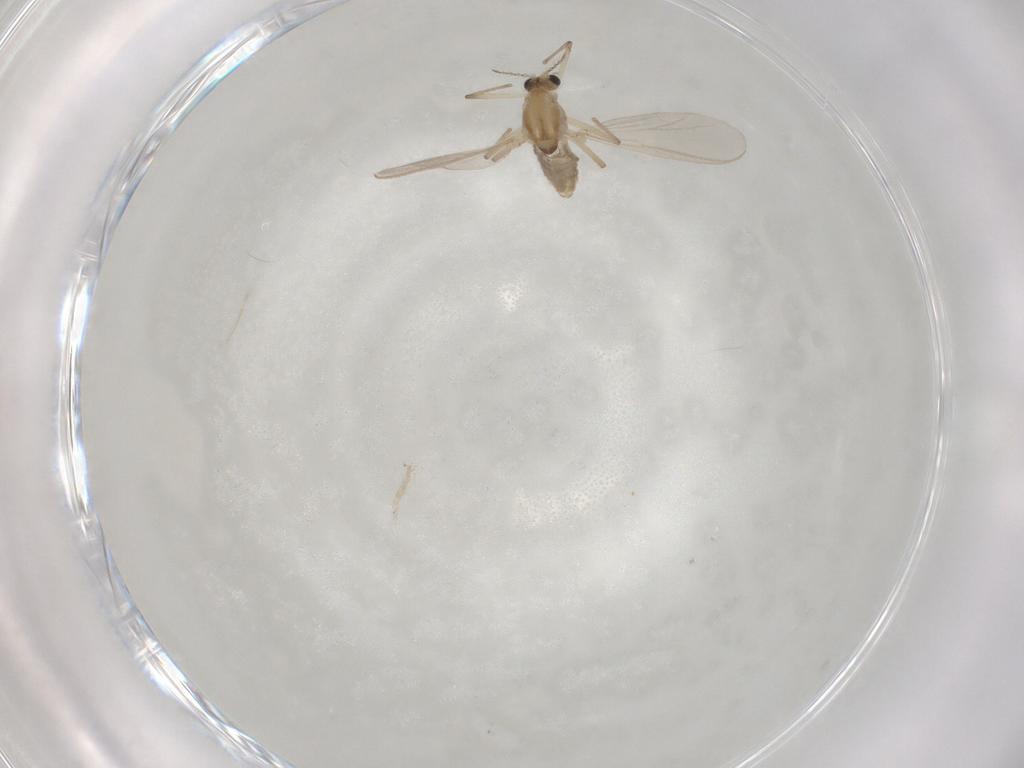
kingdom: Animalia
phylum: Arthropoda
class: Insecta
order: Diptera
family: Chironomidae
